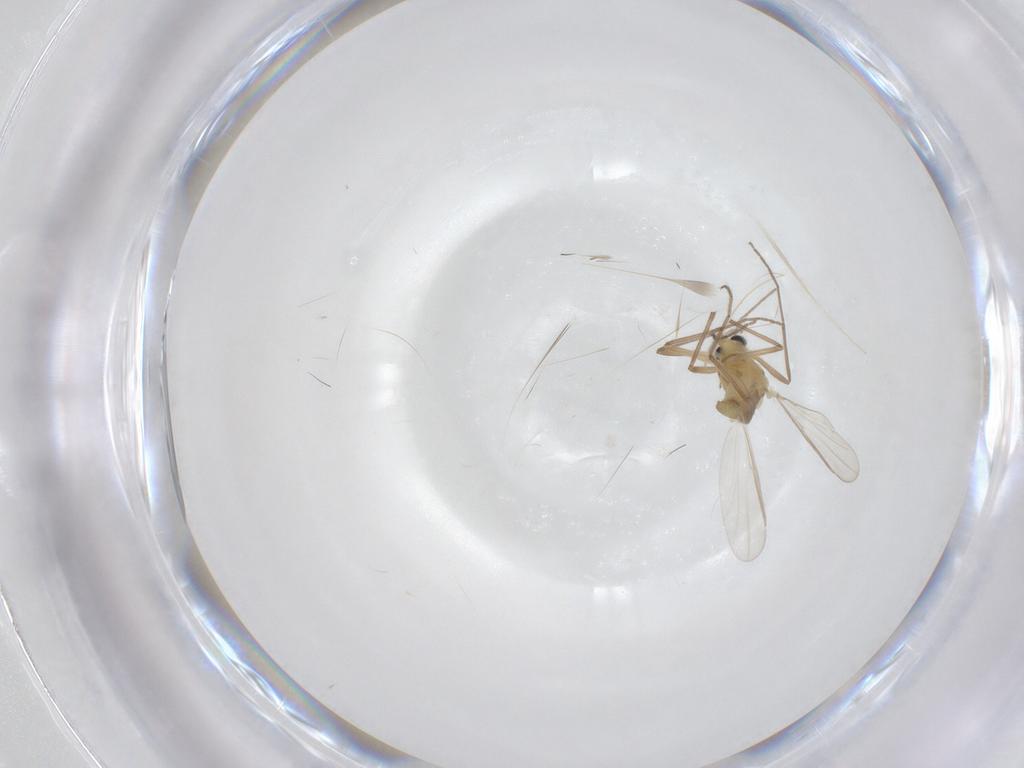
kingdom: Animalia
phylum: Arthropoda
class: Insecta
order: Diptera
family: Chironomidae
